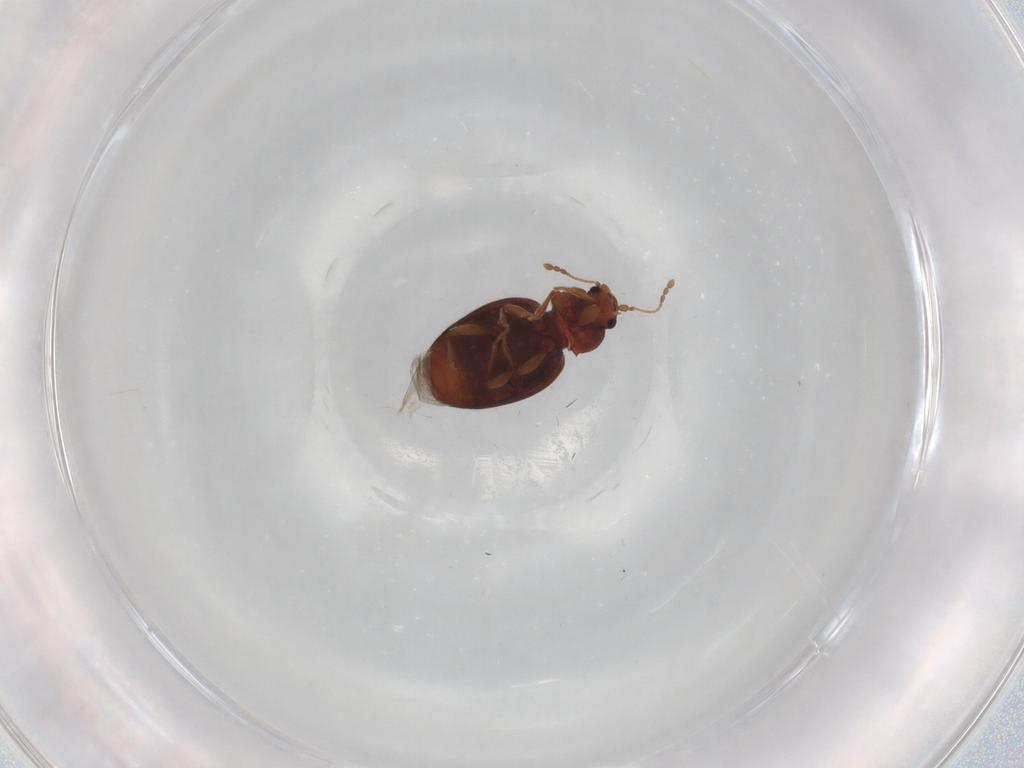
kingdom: Animalia
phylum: Arthropoda
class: Insecta
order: Coleoptera
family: Latridiidae
